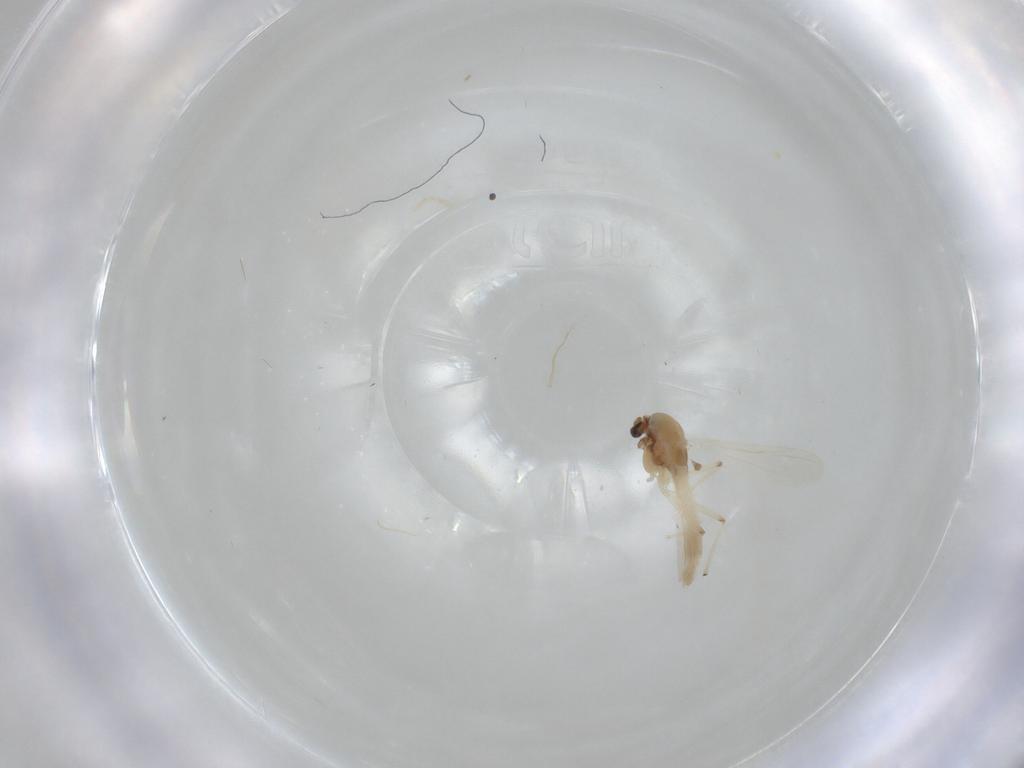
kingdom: Animalia
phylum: Arthropoda
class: Insecta
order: Diptera
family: Chironomidae
